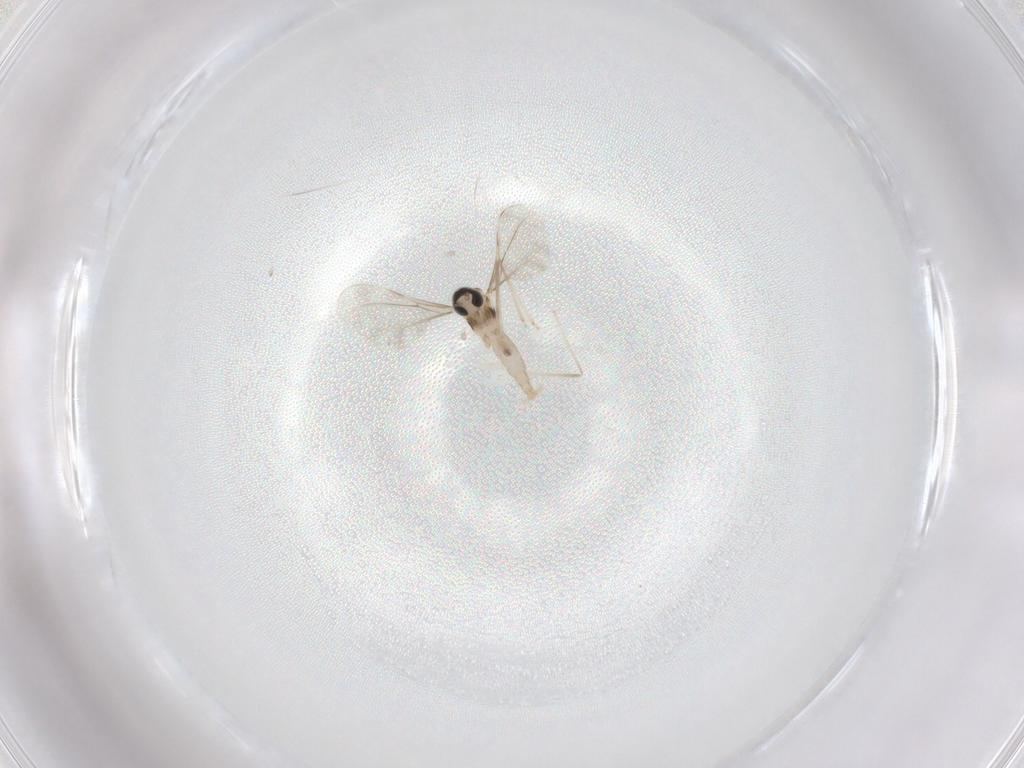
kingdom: Animalia
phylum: Arthropoda
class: Insecta
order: Diptera
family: Cecidomyiidae
